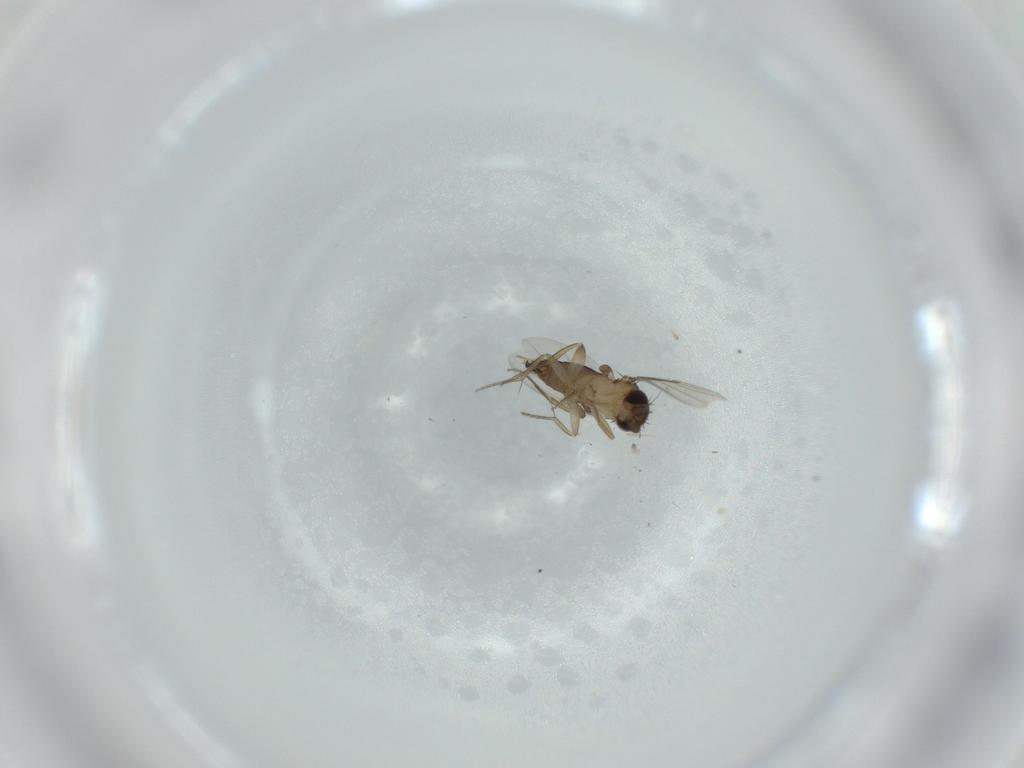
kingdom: Animalia
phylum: Arthropoda
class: Insecta
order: Diptera
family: Phoridae
